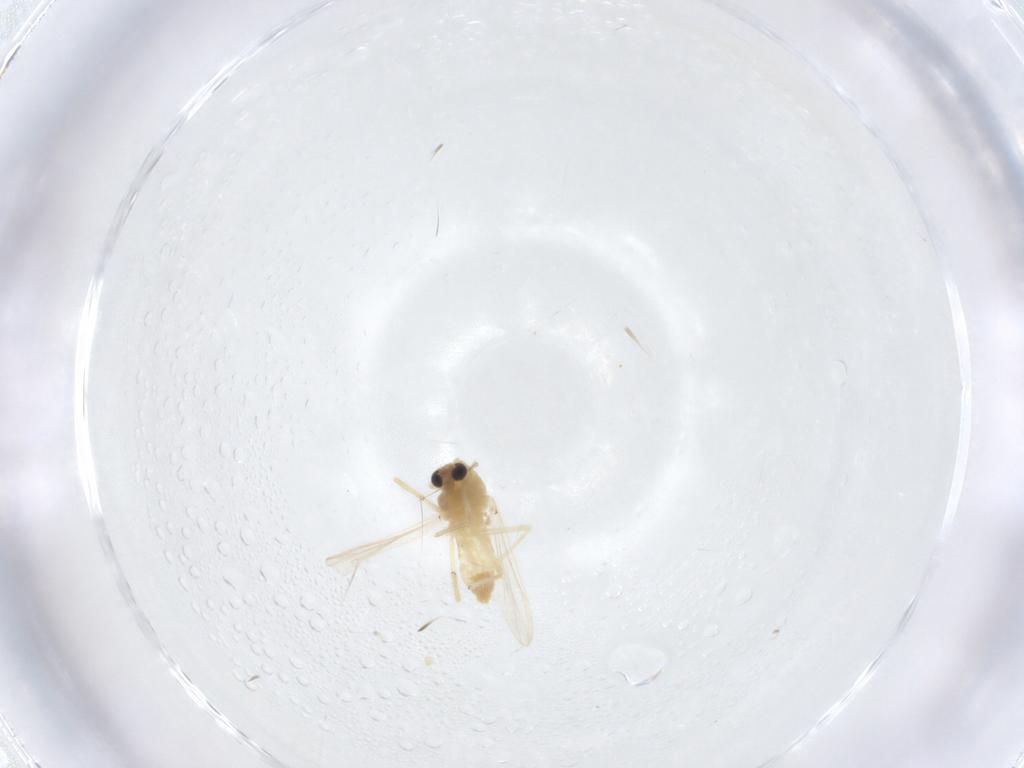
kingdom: Animalia
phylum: Arthropoda
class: Insecta
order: Diptera
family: Chironomidae
